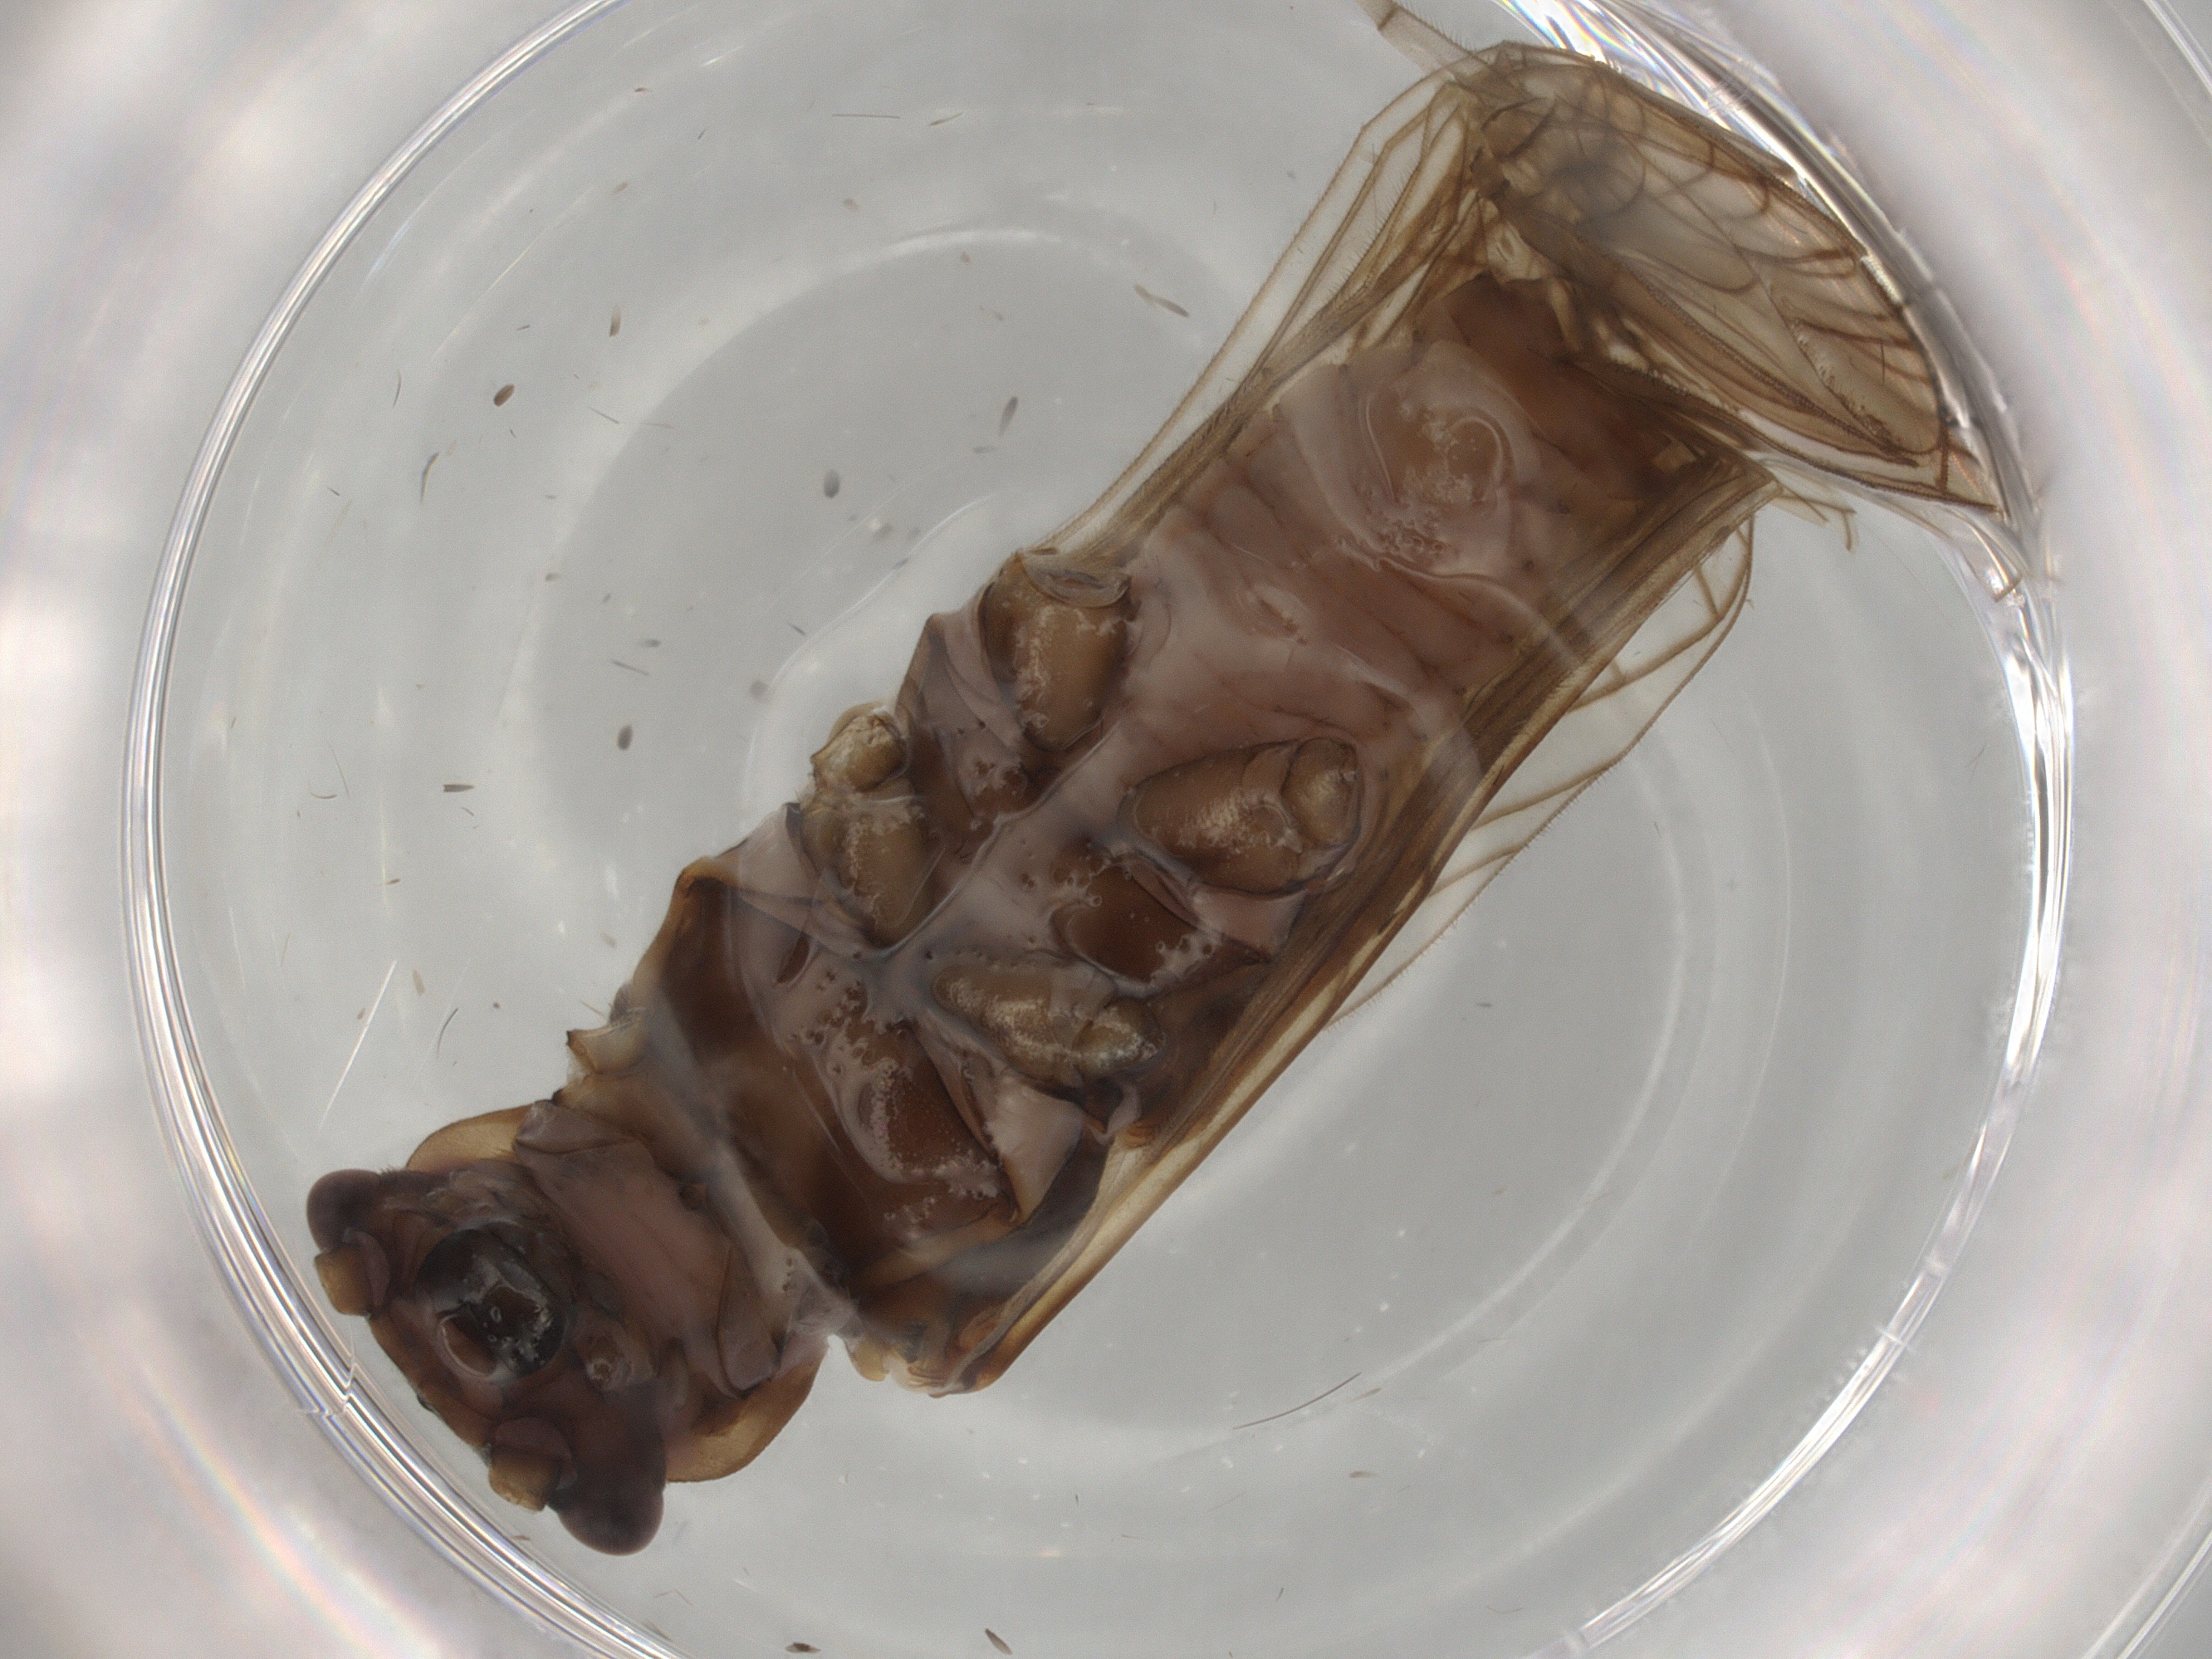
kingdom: Animalia
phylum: Arthropoda
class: Insecta
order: Plecoptera
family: Nemouridae
